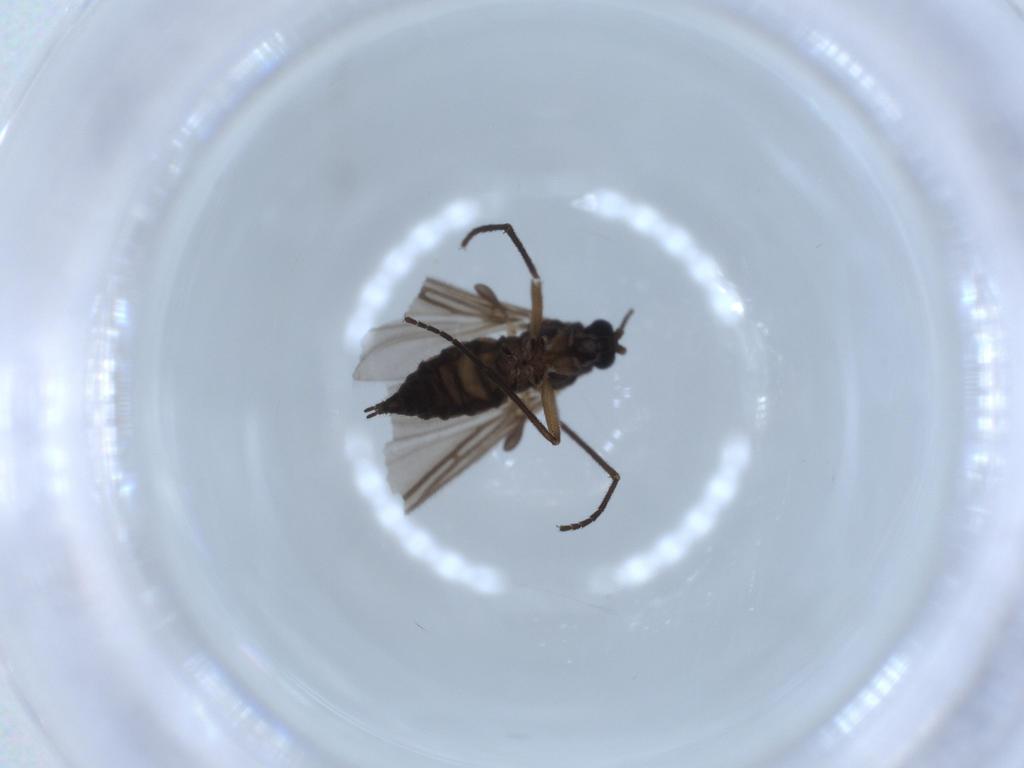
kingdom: Animalia
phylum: Arthropoda
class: Insecta
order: Diptera
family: Sciaridae
